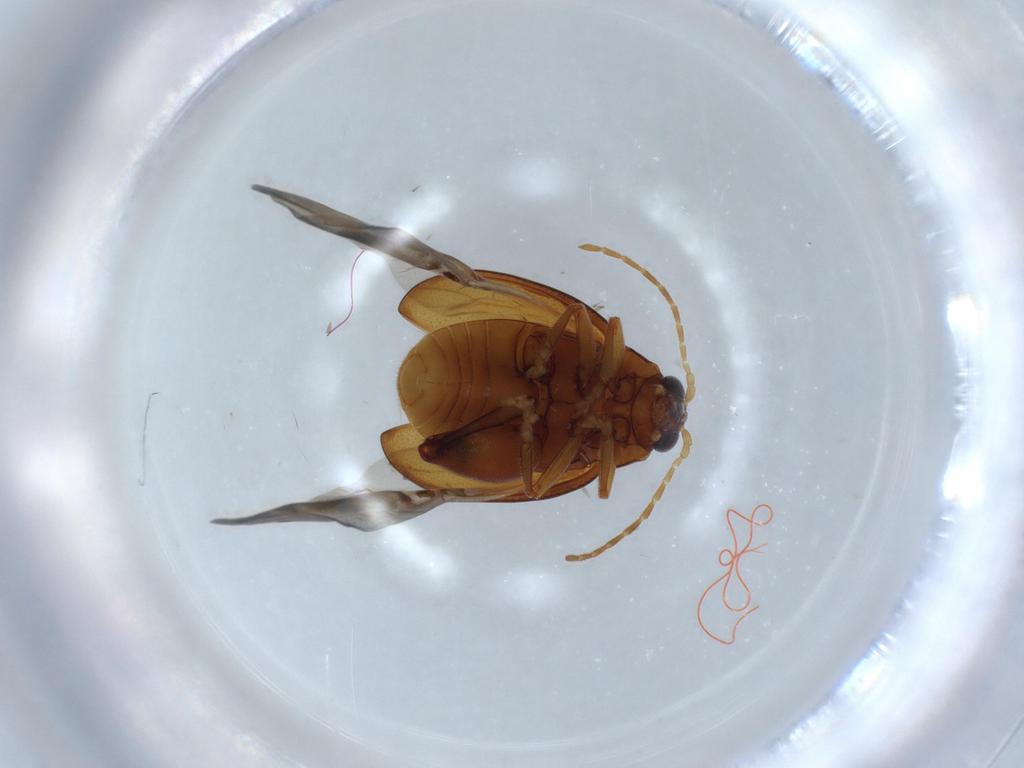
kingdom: Animalia
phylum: Arthropoda
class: Insecta
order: Coleoptera
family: Chrysomelidae
